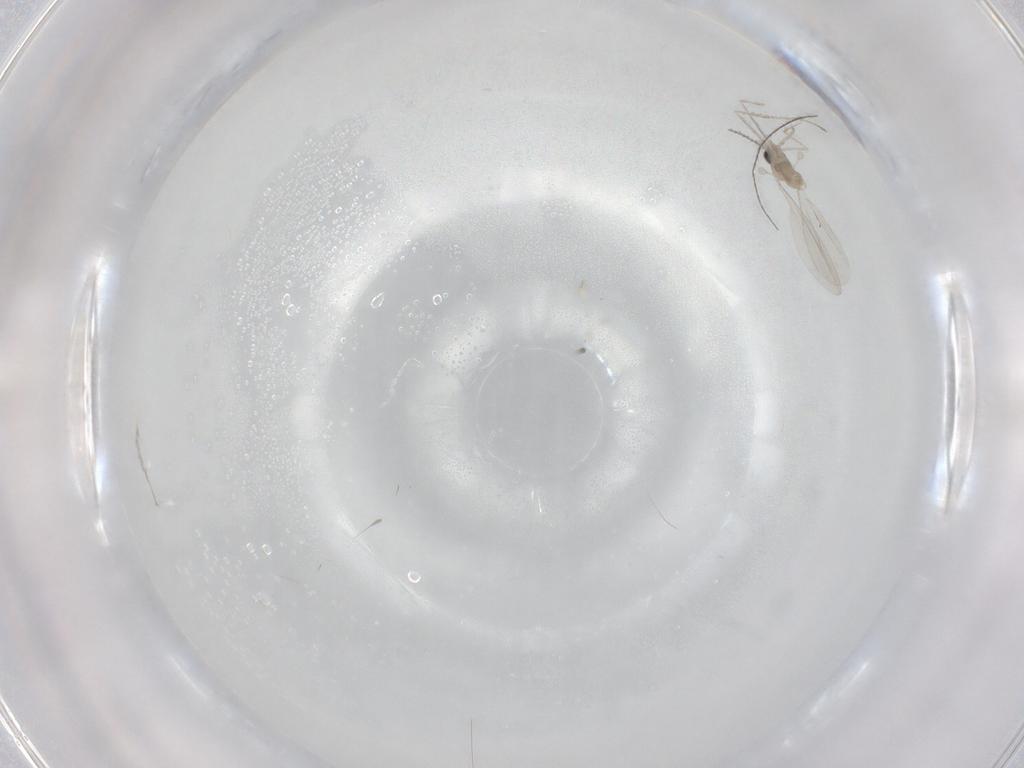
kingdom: Animalia
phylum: Arthropoda
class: Insecta
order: Diptera
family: Cecidomyiidae
